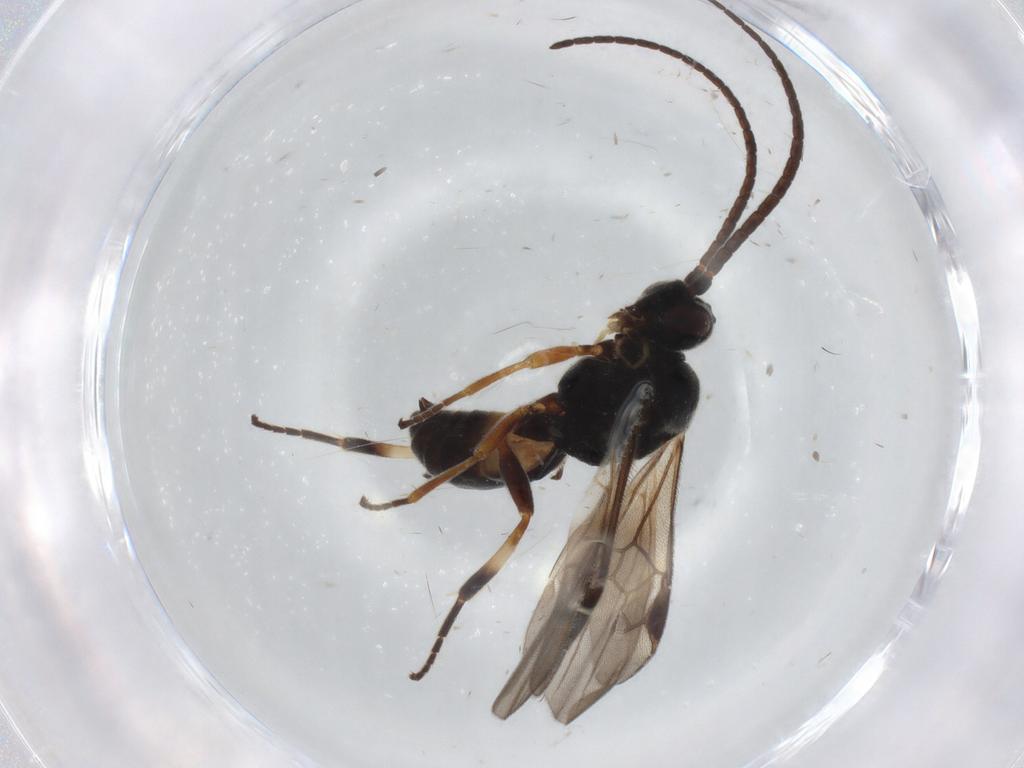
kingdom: Animalia
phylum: Arthropoda
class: Insecta
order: Hymenoptera
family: Braconidae
